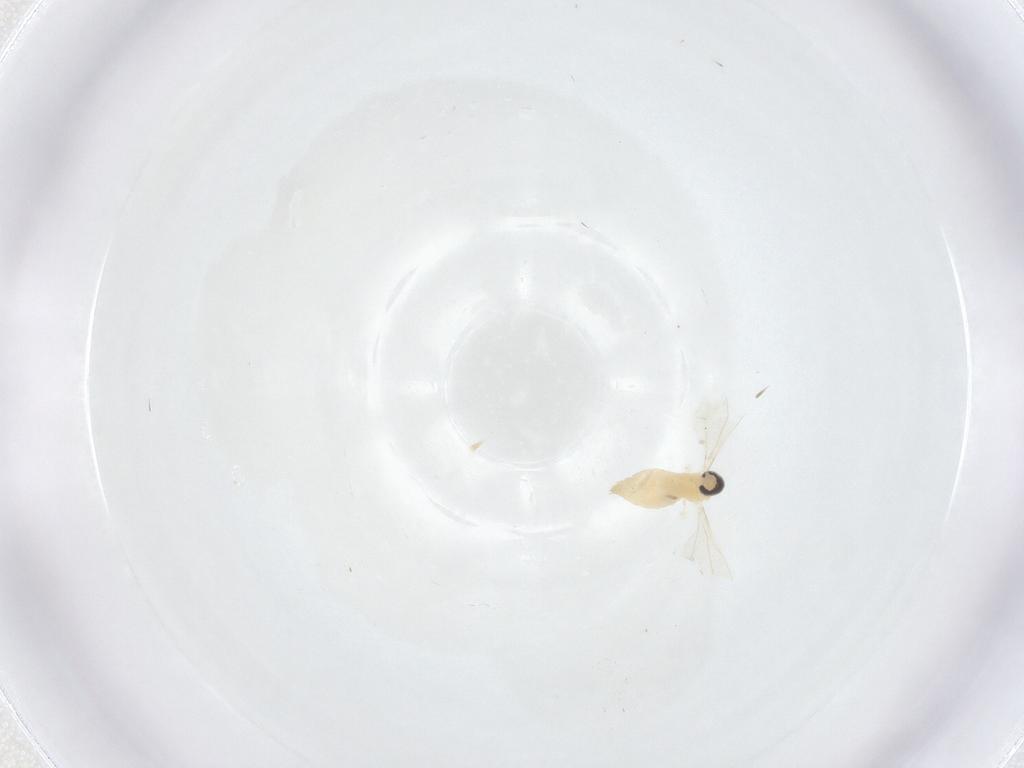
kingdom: Animalia
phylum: Arthropoda
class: Insecta
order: Diptera
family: Cecidomyiidae
